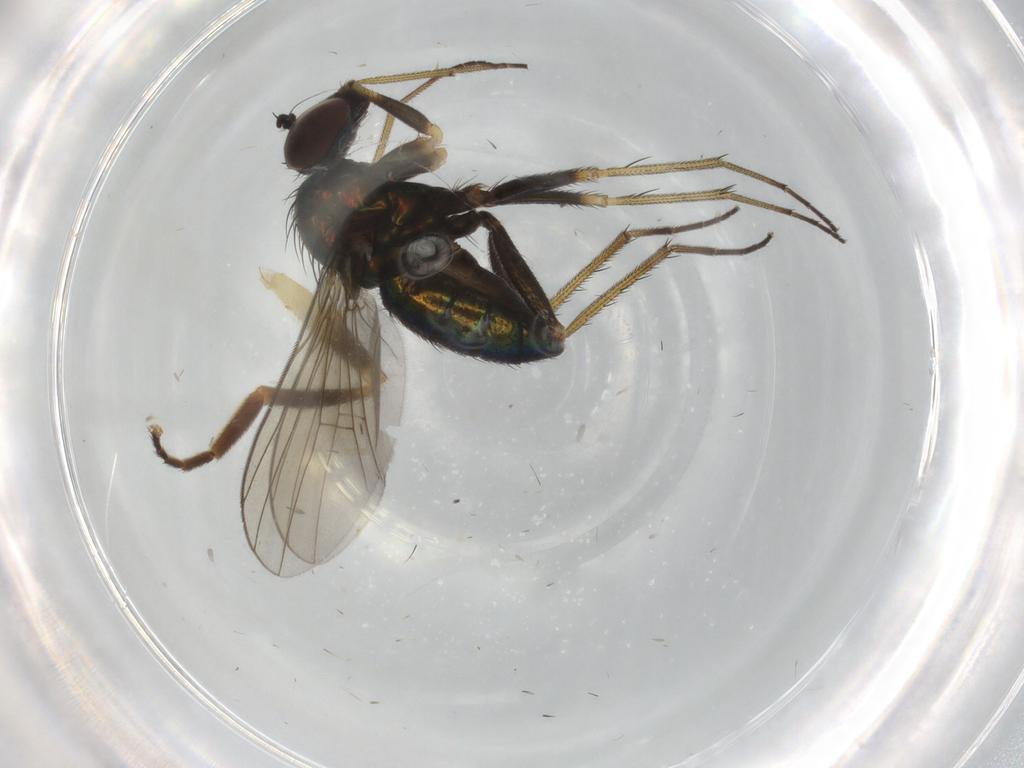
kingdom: Animalia
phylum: Arthropoda
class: Insecta
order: Diptera
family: Dolichopodidae
